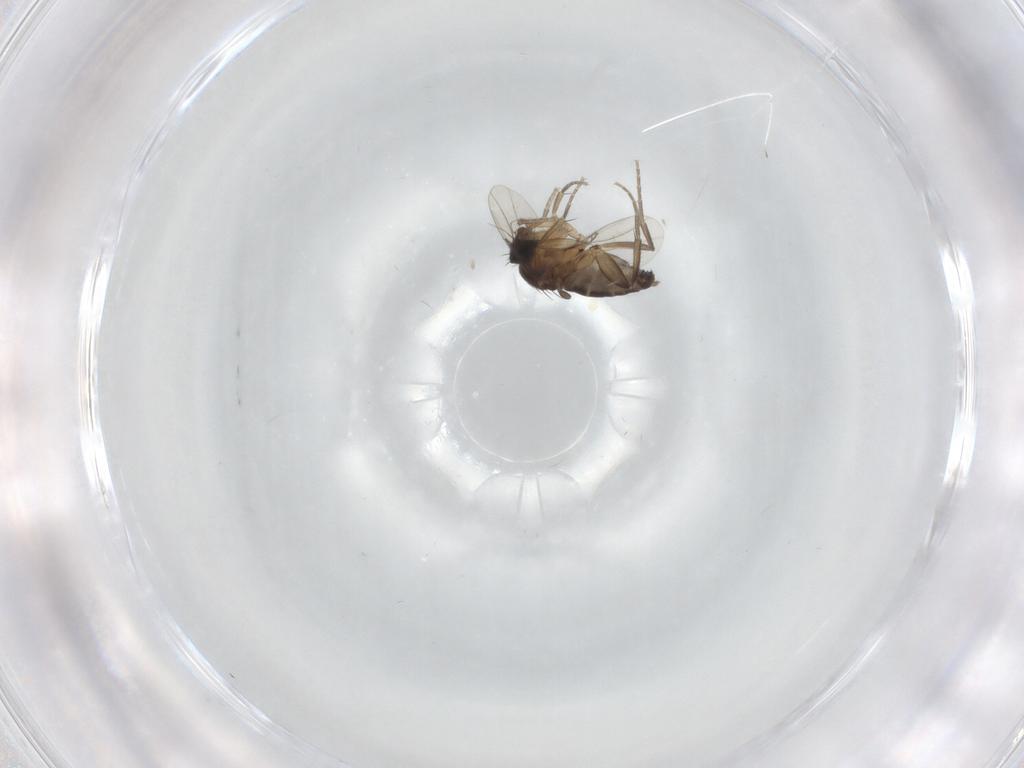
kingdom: Animalia
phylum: Arthropoda
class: Insecta
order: Diptera
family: Phoridae
